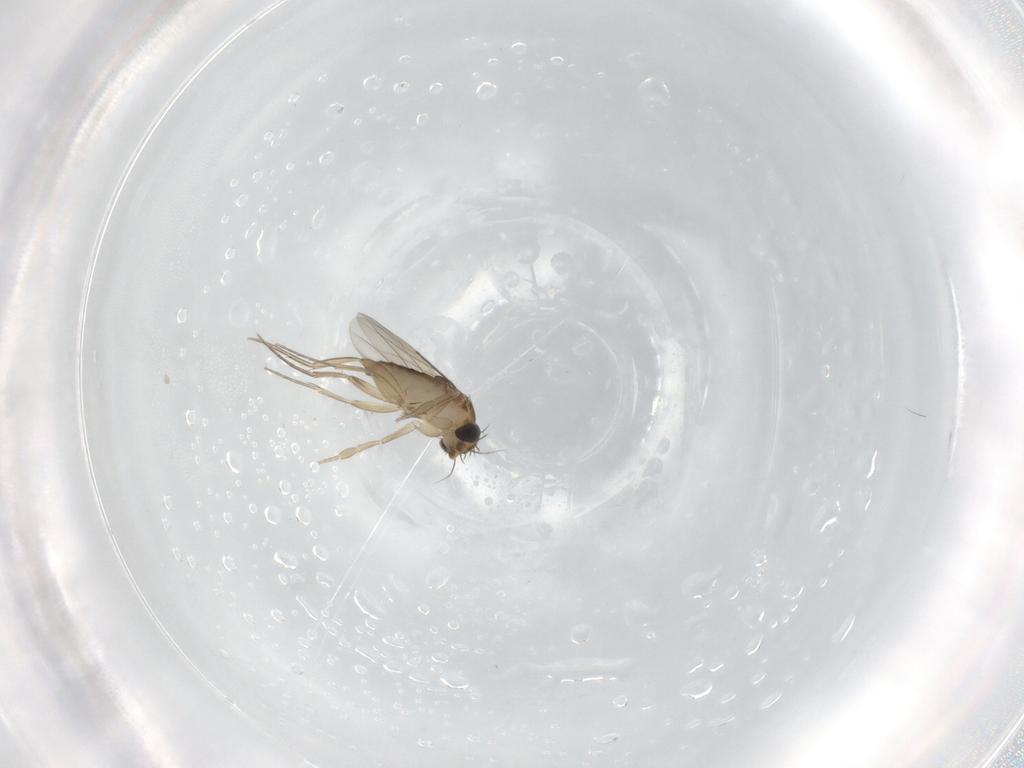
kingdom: Animalia
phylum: Arthropoda
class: Insecta
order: Diptera
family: Phoridae
